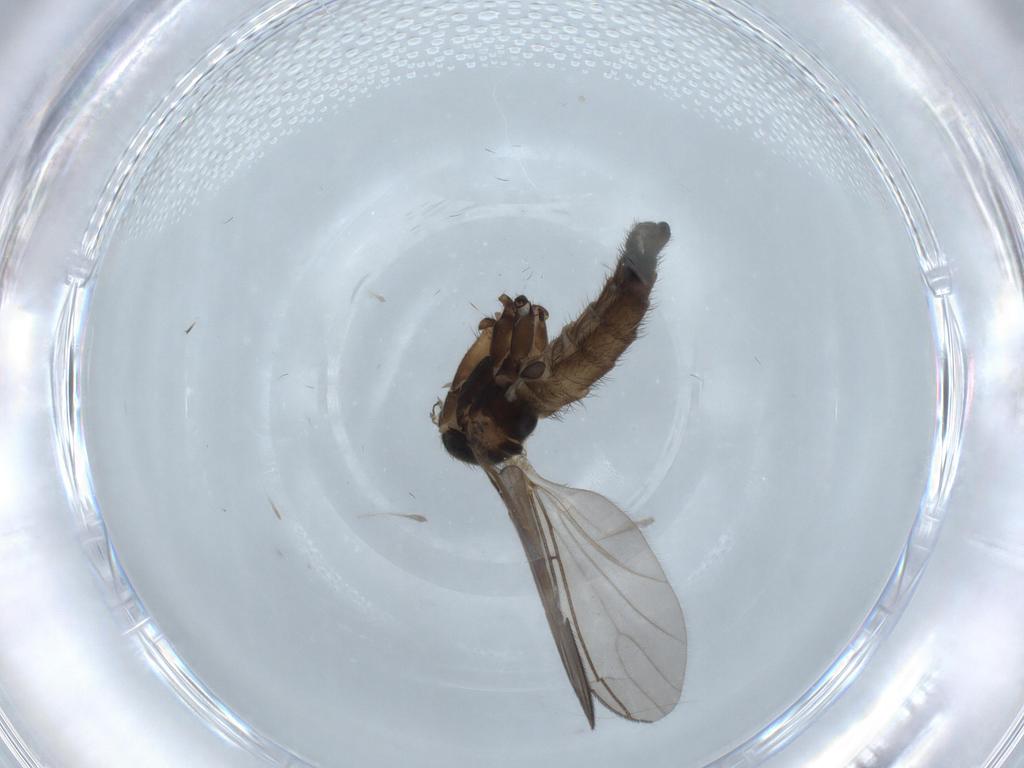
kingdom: Animalia
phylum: Arthropoda
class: Insecta
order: Diptera
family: Sciaridae
